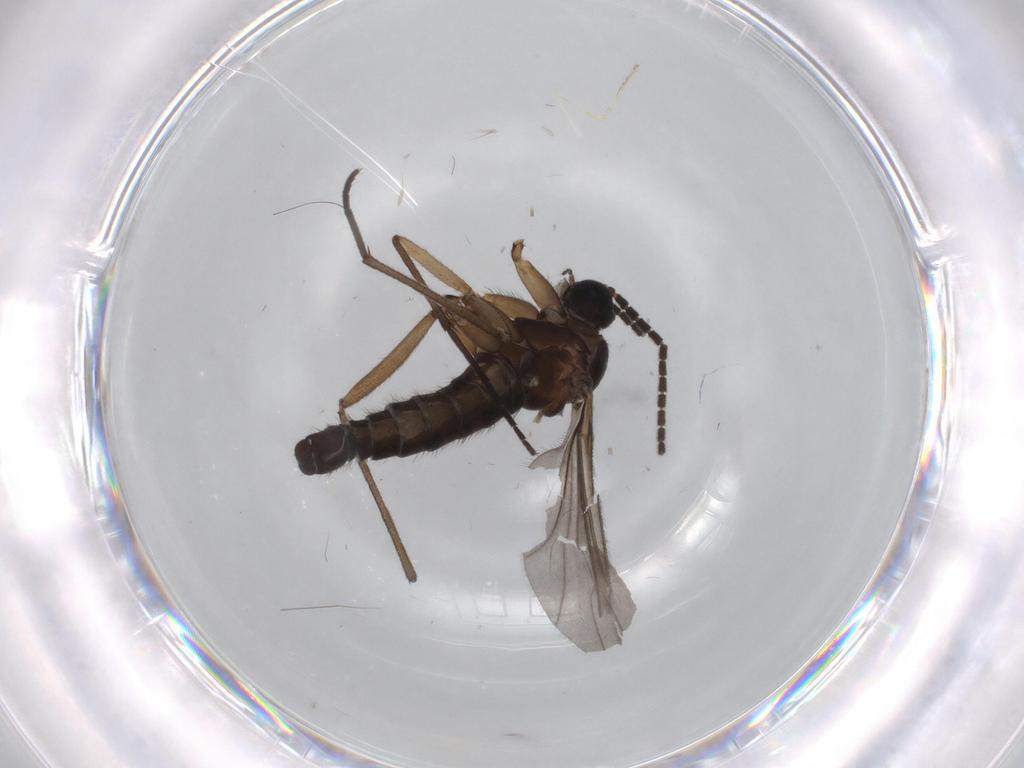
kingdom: Animalia
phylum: Arthropoda
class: Insecta
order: Diptera
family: Sciaridae
